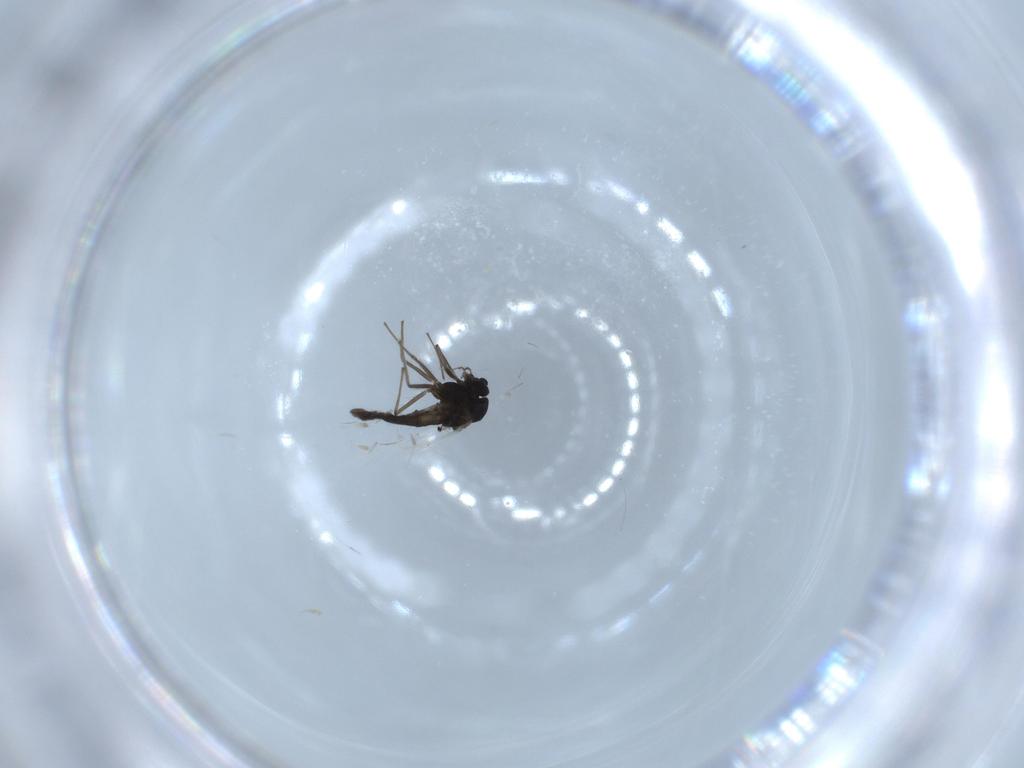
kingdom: Animalia
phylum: Arthropoda
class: Insecta
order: Diptera
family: Chironomidae
